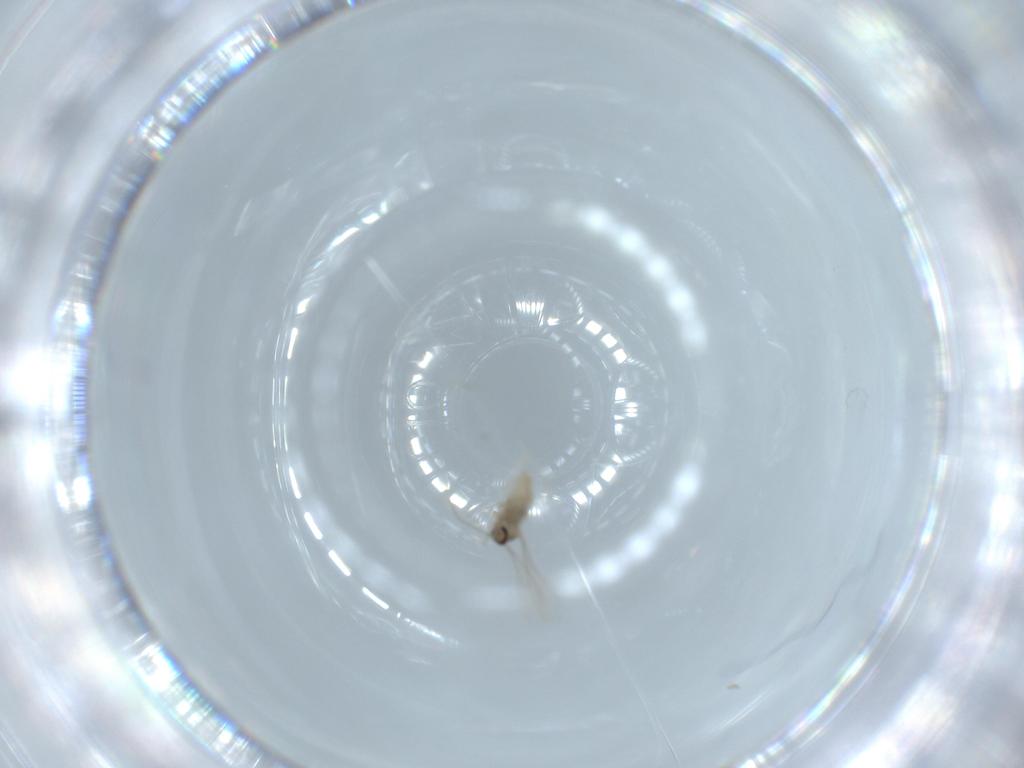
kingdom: Animalia
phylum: Arthropoda
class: Insecta
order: Diptera
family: Cecidomyiidae
